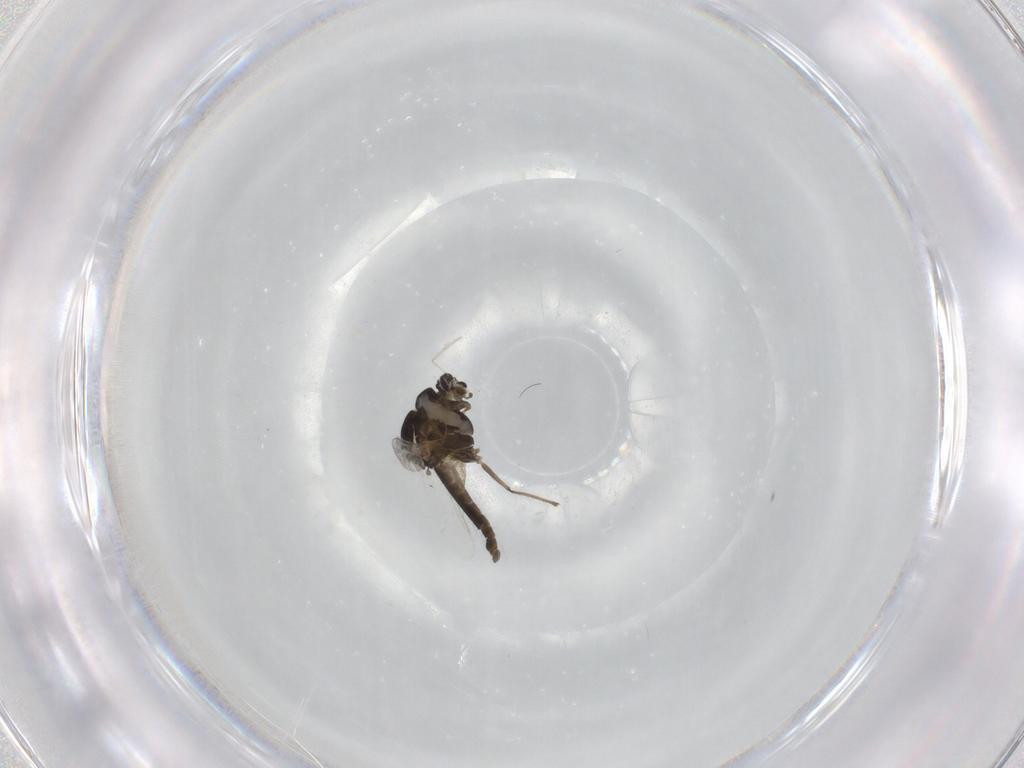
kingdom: Animalia
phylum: Arthropoda
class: Insecta
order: Diptera
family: Chironomidae
